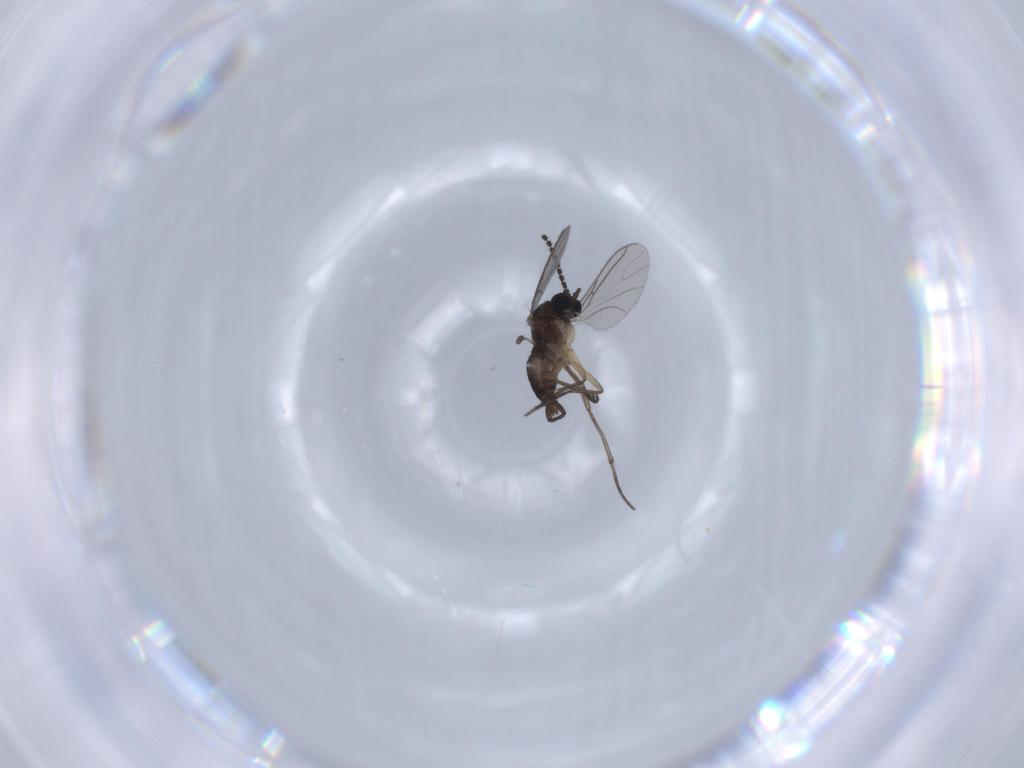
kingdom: Animalia
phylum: Arthropoda
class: Insecta
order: Diptera
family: Sciaridae
